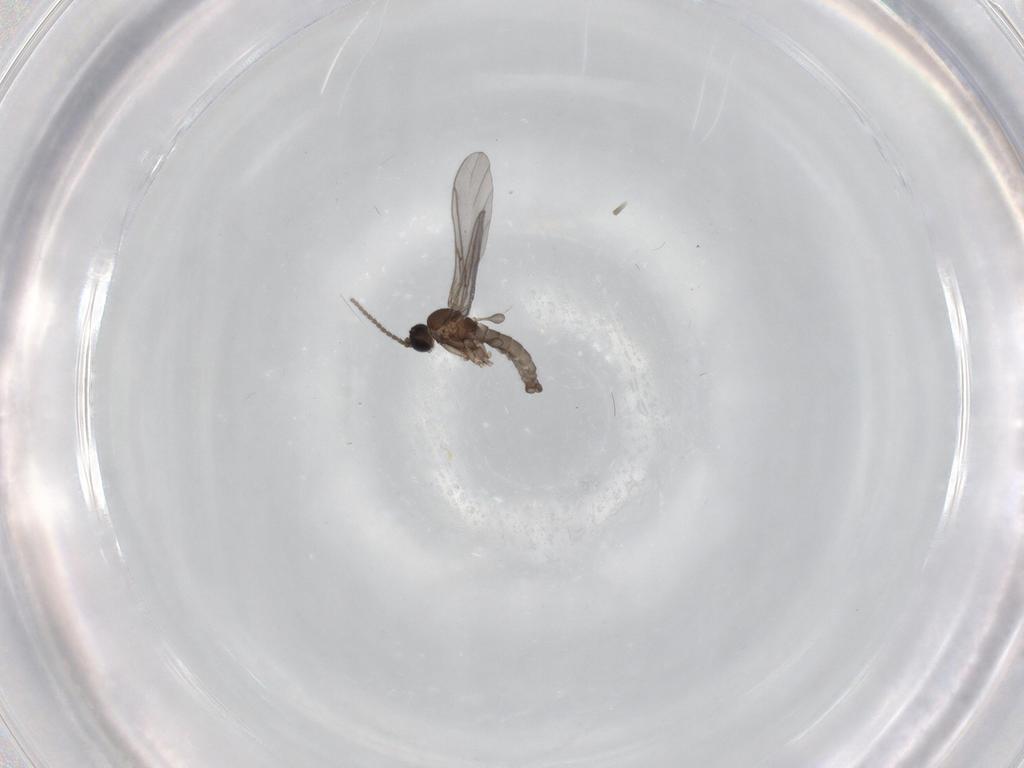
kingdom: Animalia
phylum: Arthropoda
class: Insecta
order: Diptera
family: Sciaridae
